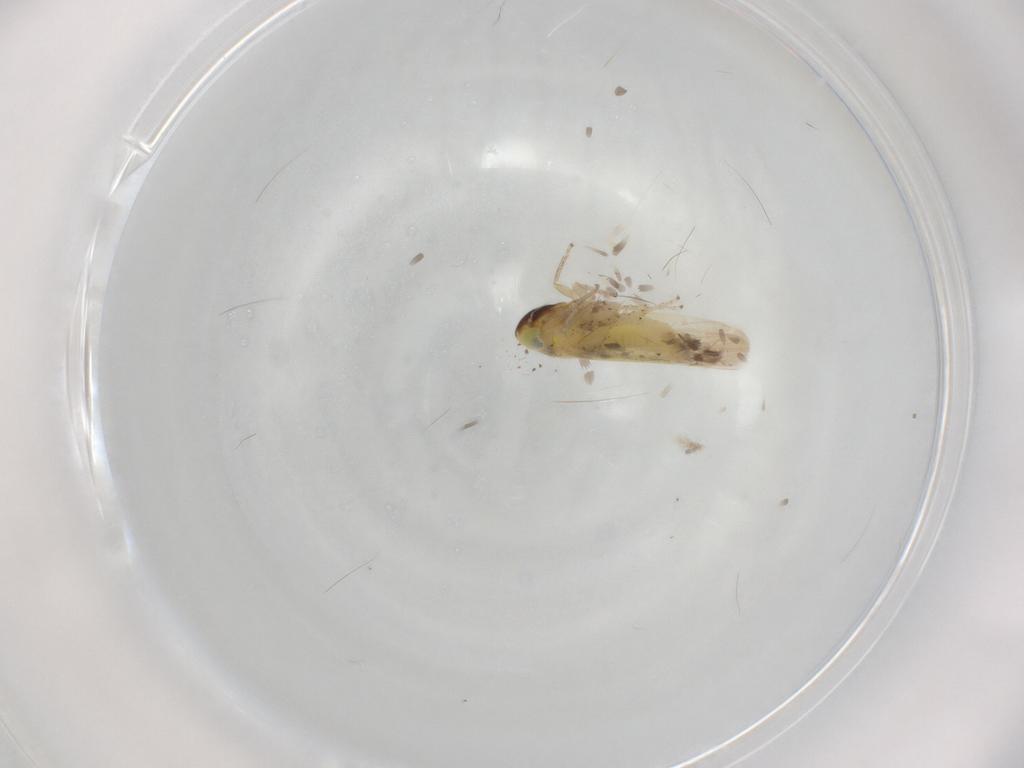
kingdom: Animalia
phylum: Arthropoda
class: Insecta
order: Hemiptera
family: Cicadellidae
